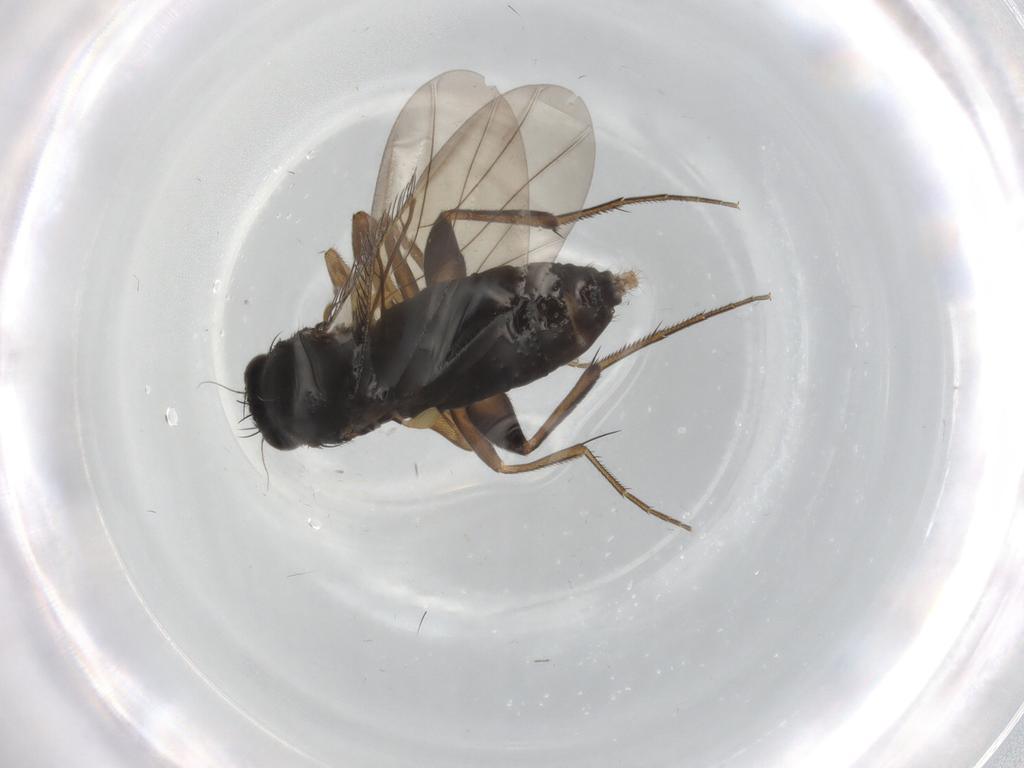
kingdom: Animalia
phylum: Arthropoda
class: Insecta
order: Diptera
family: Phoridae
